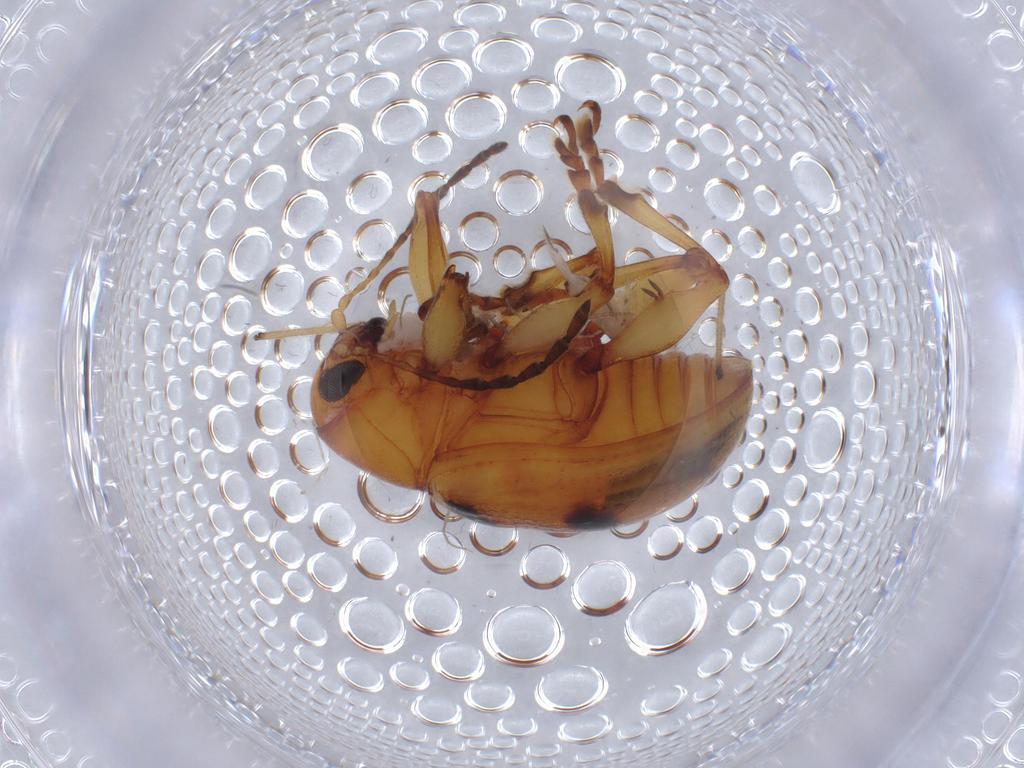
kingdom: Animalia
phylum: Arthropoda
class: Insecta
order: Coleoptera
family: Chrysomelidae
